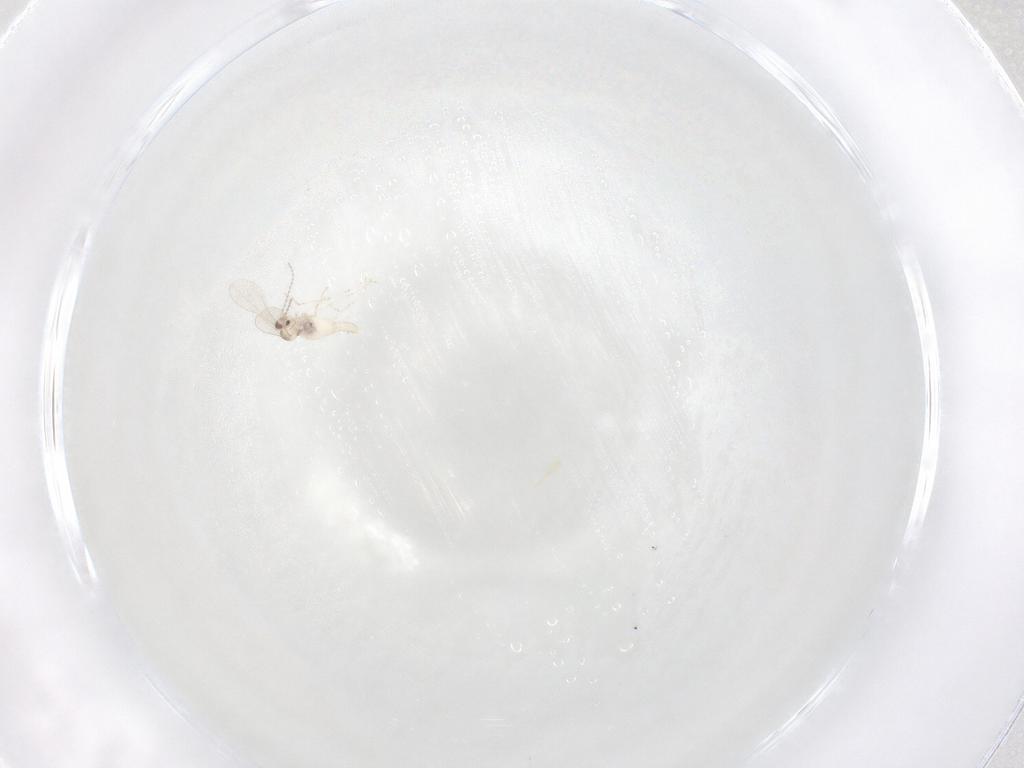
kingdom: Animalia
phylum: Arthropoda
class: Insecta
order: Diptera
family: Cecidomyiidae
